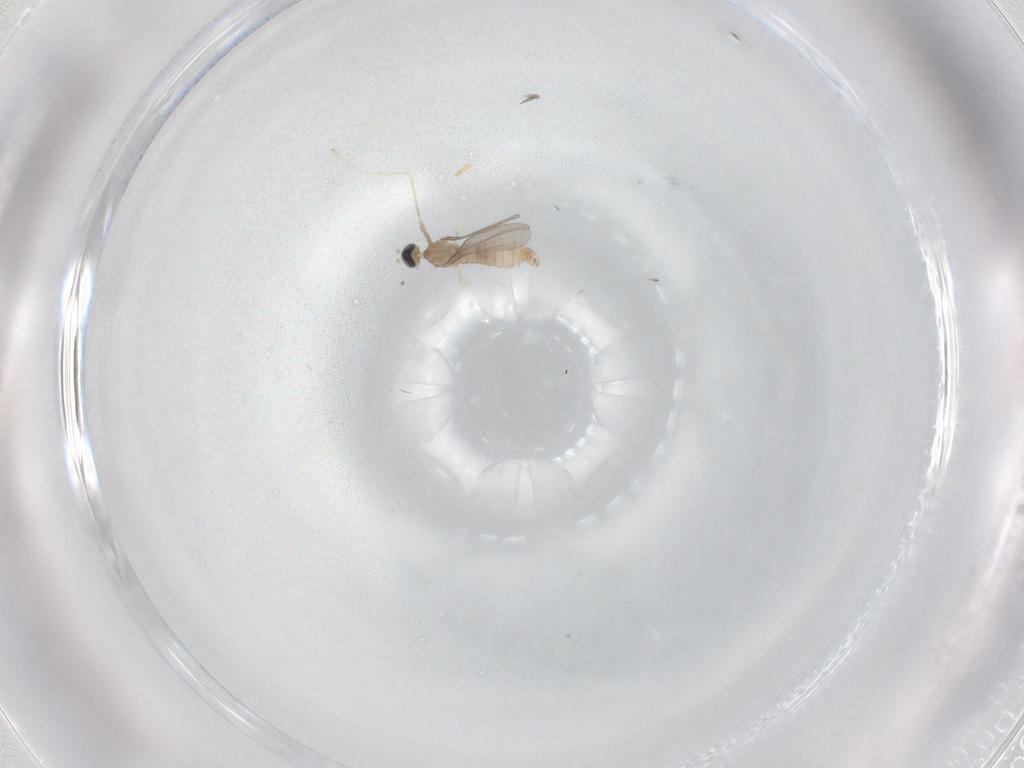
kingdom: Animalia
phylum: Arthropoda
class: Insecta
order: Diptera
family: Cecidomyiidae
